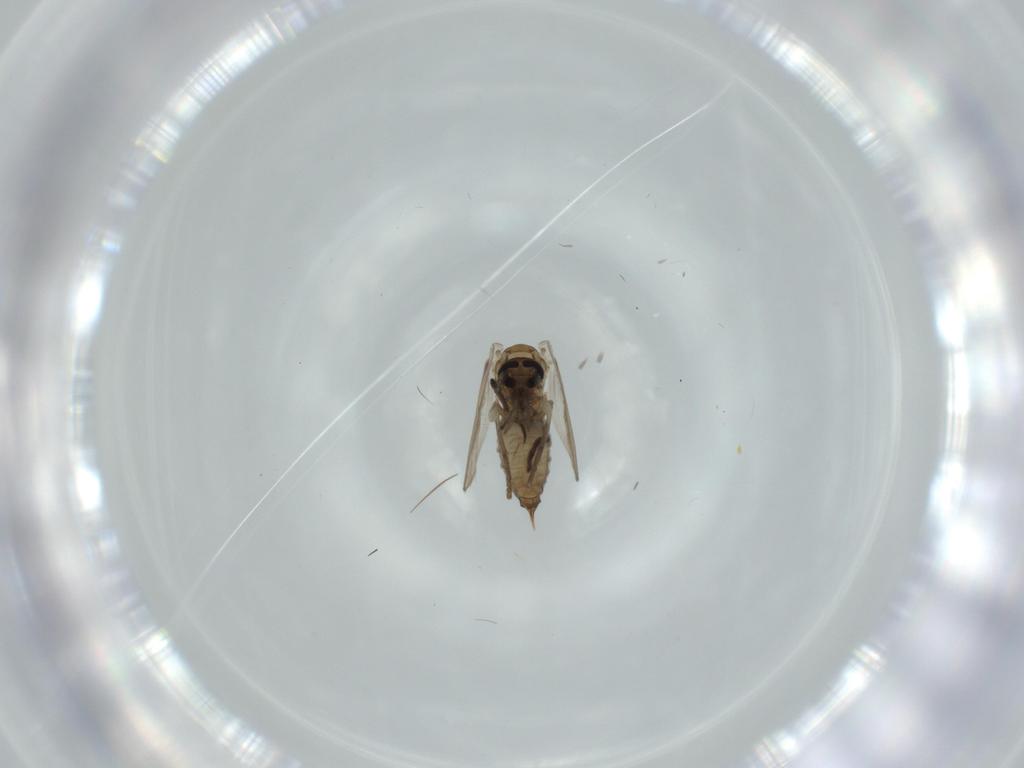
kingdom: Animalia
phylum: Arthropoda
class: Insecta
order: Diptera
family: Psychodidae
